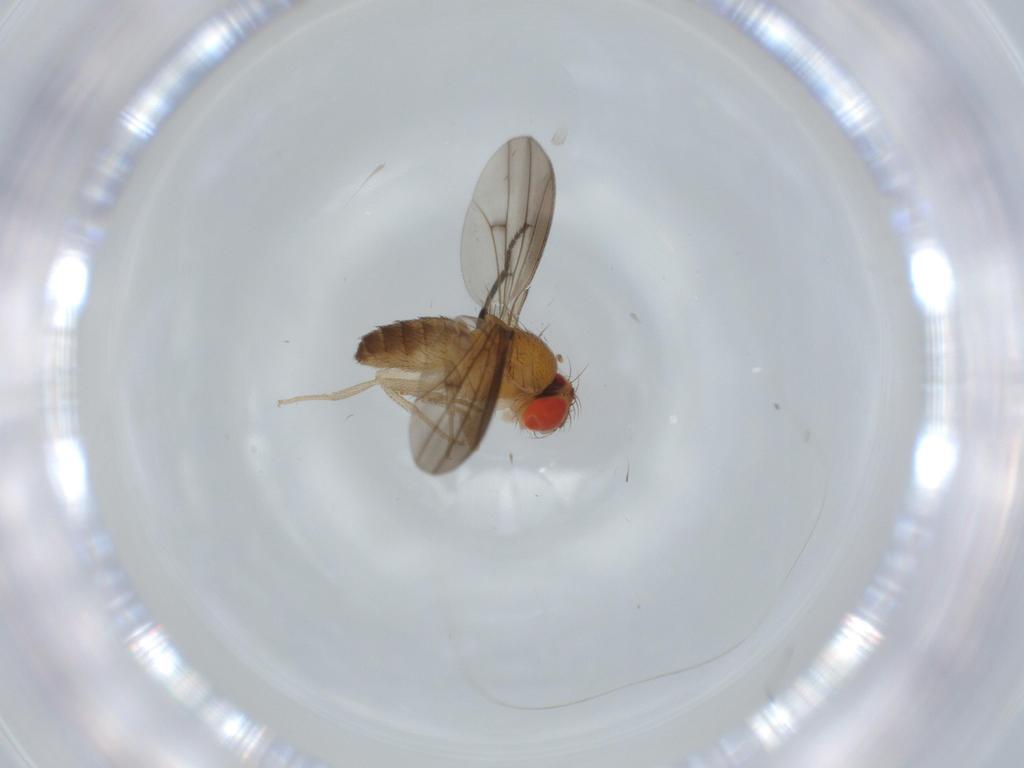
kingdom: Animalia
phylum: Arthropoda
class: Insecta
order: Diptera
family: Drosophilidae
